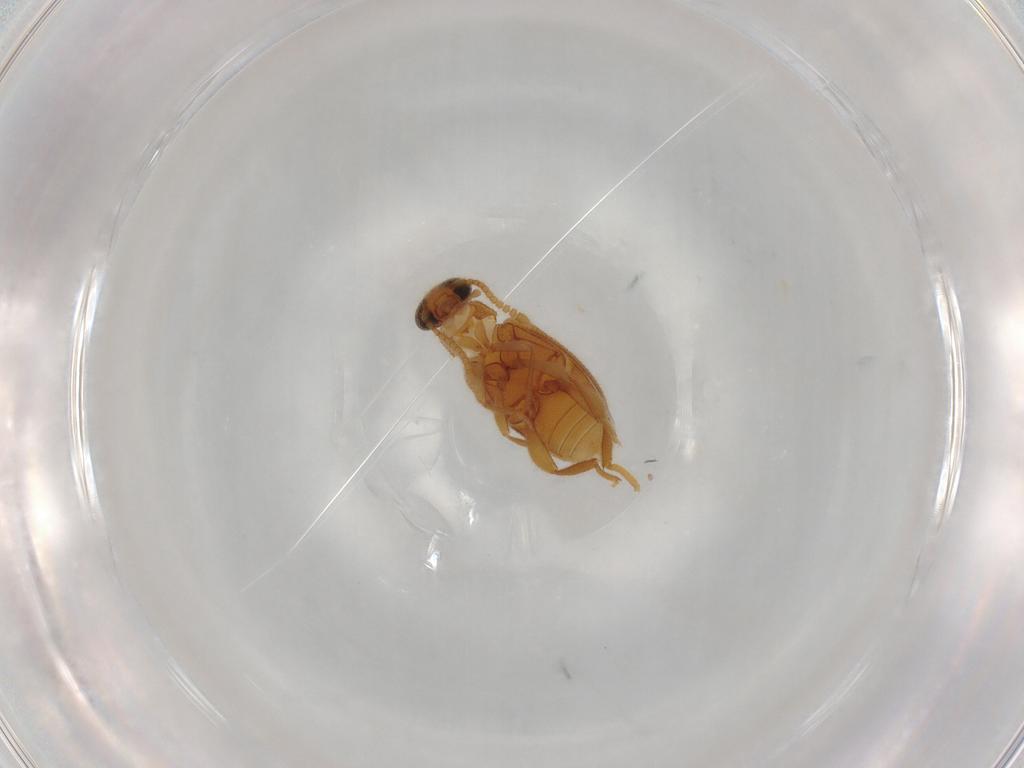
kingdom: Animalia
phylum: Arthropoda
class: Insecta
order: Coleoptera
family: Aderidae
